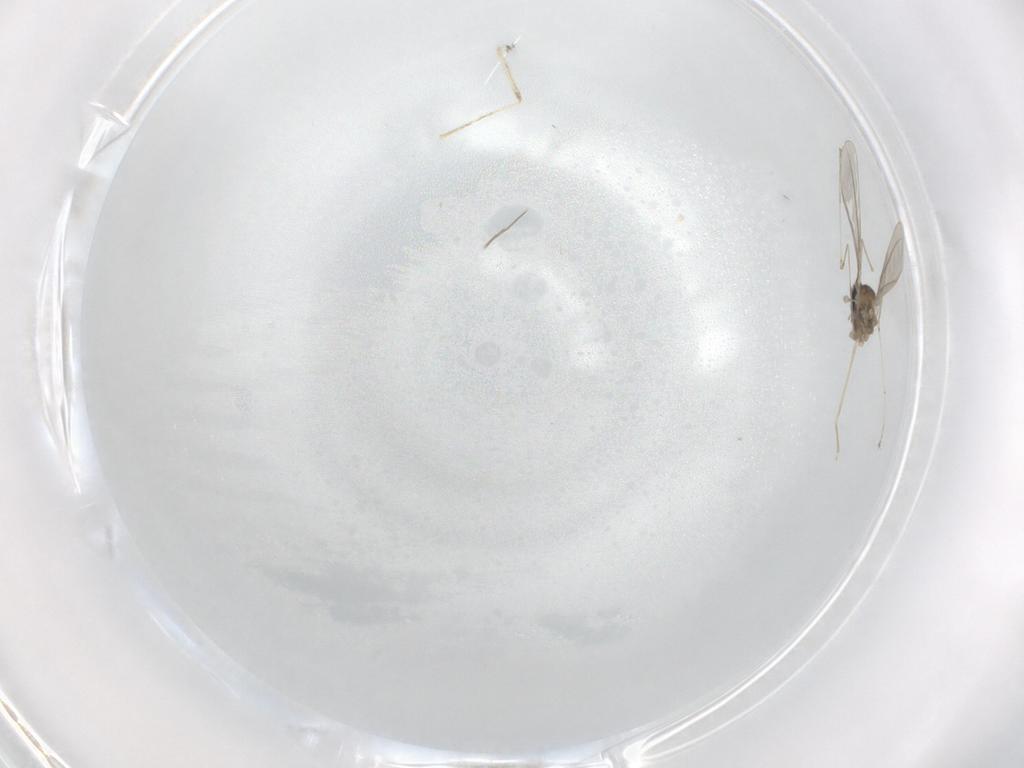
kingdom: Animalia
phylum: Arthropoda
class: Insecta
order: Diptera
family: Cecidomyiidae
